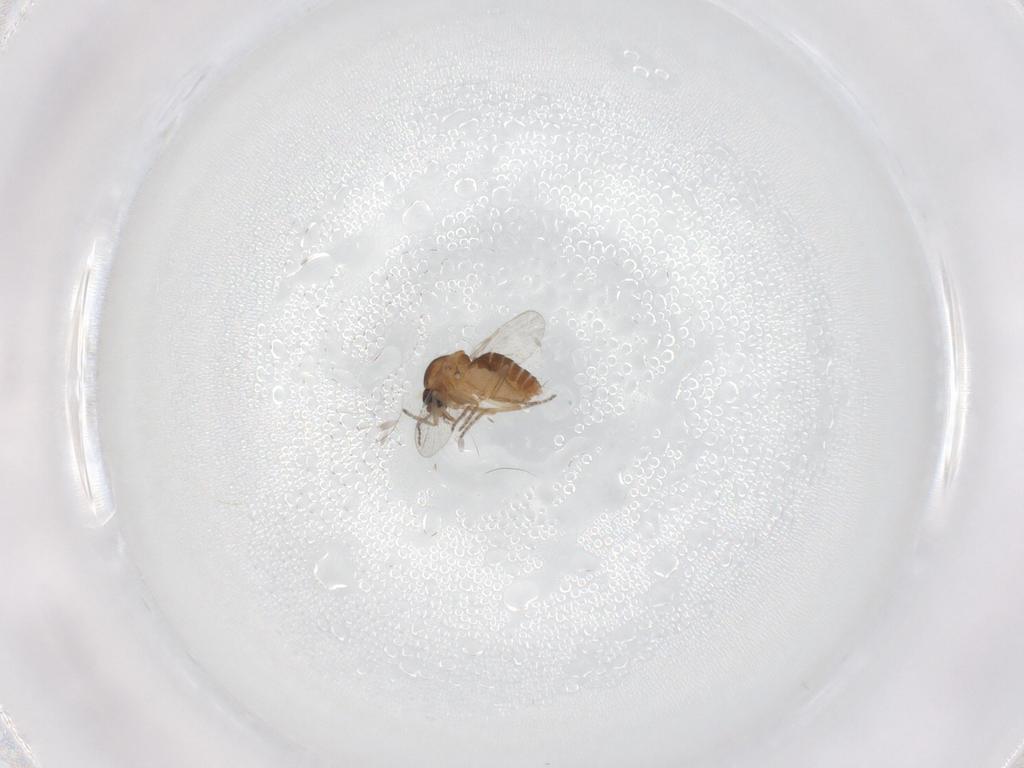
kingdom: Animalia
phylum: Arthropoda
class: Insecta
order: Diptera
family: Ceratopogonidae
